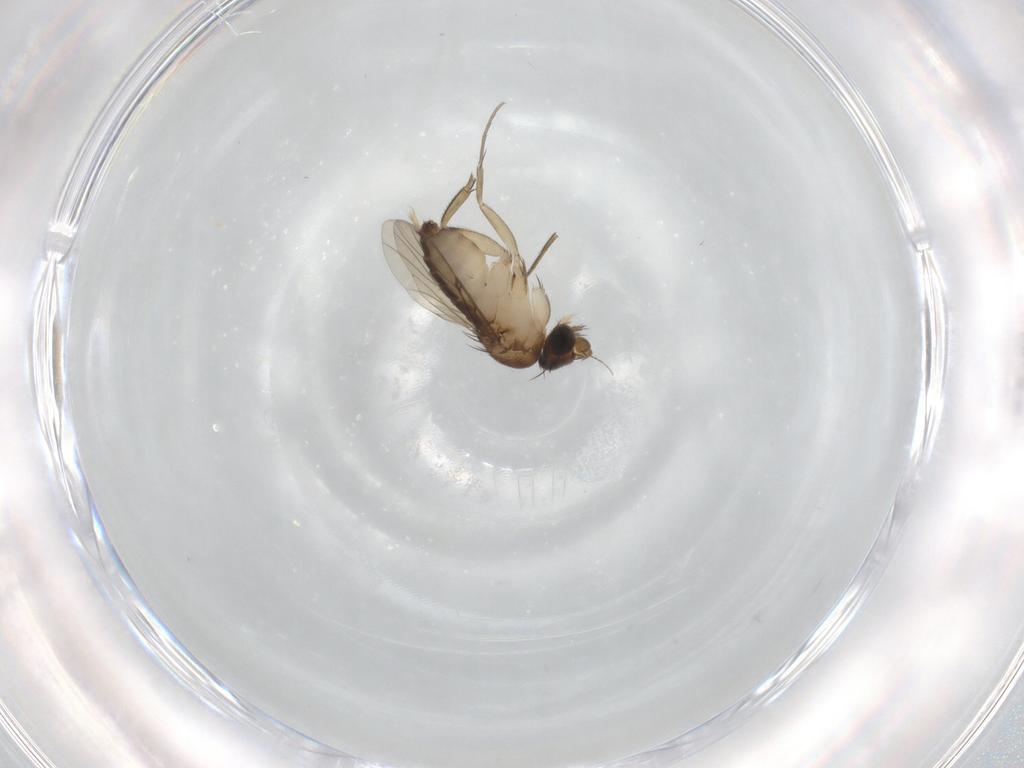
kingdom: Animalia
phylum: Arthropoda
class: Insecta
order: Diptera
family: Phoridae
